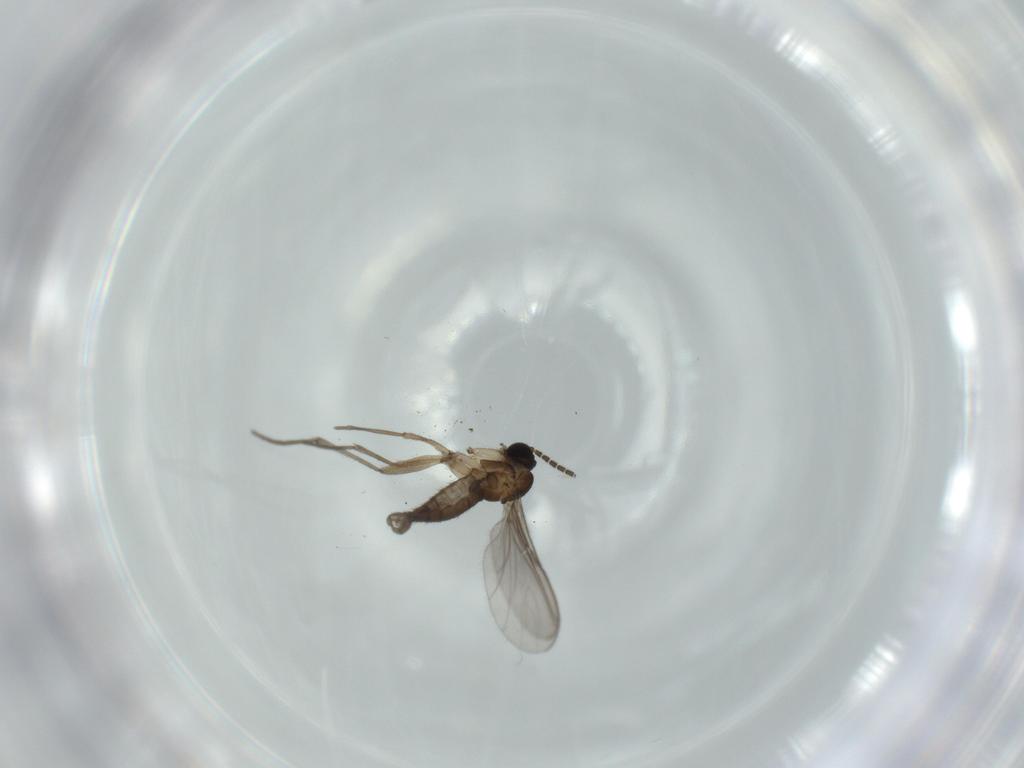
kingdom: Animalia
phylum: Arthropoda
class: Insecta
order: Diptera
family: Sciaridae
